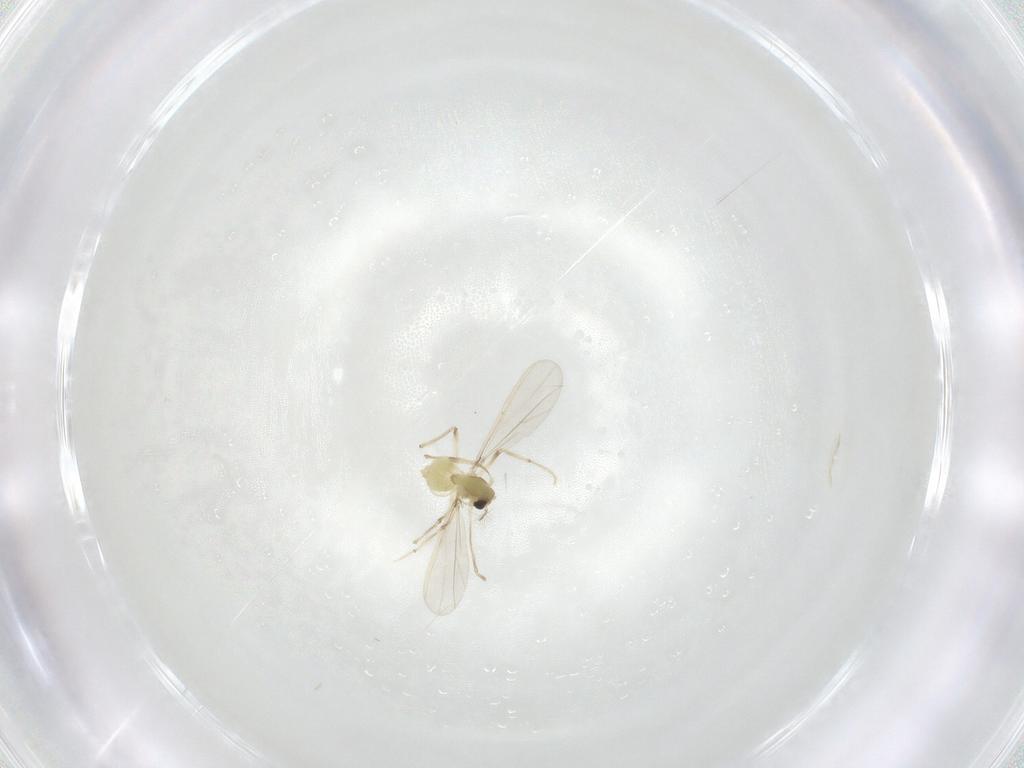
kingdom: Animalia
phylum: Arthropoda
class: Insecta
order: Diptera
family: Chironomidae
